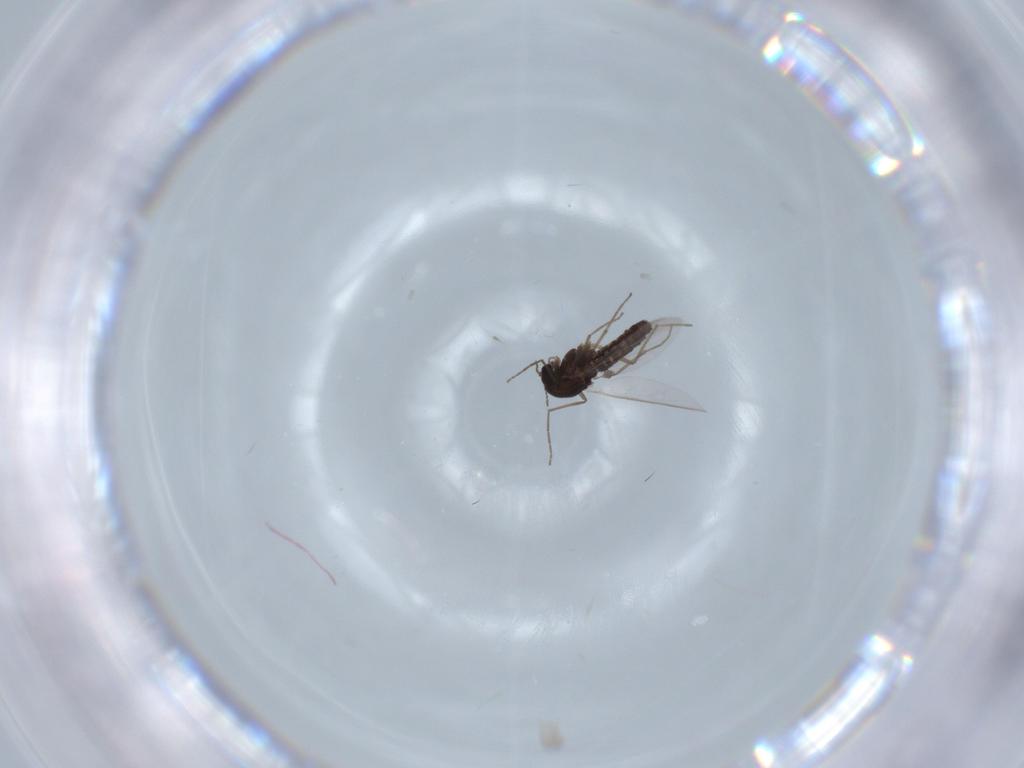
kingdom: Animalia
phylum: Arthropoda
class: Insecta
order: Diptera
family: Chironomidae
